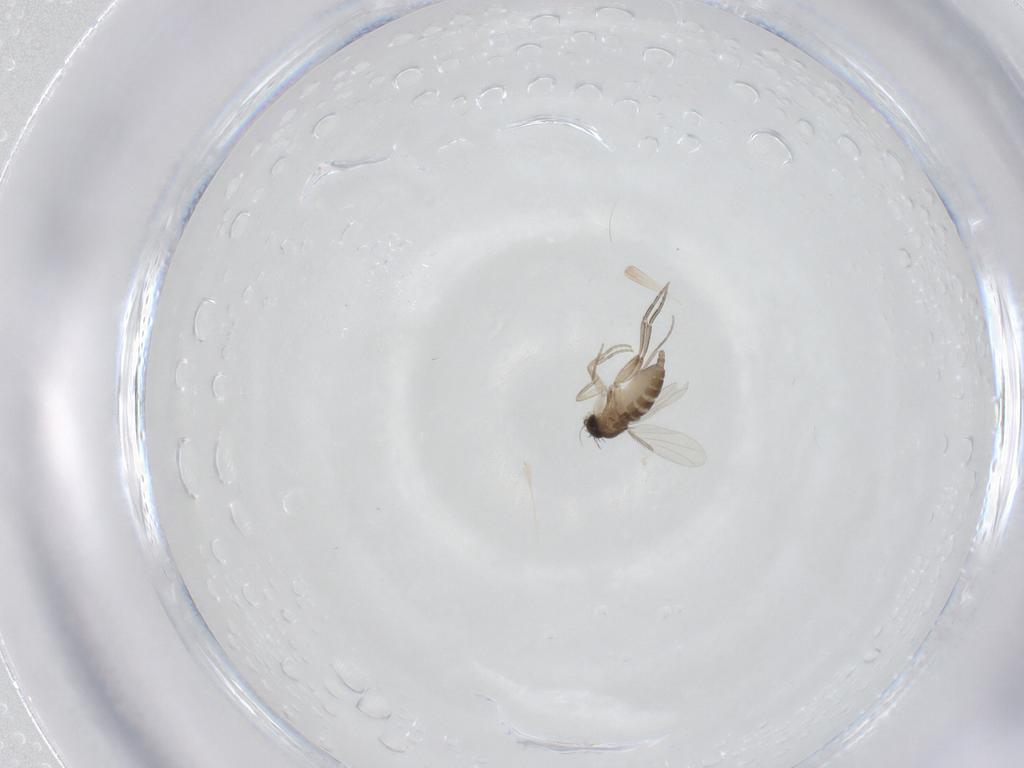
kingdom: Animalia
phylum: Arthropoda
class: Insecta
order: Diptera
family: Phoridae
